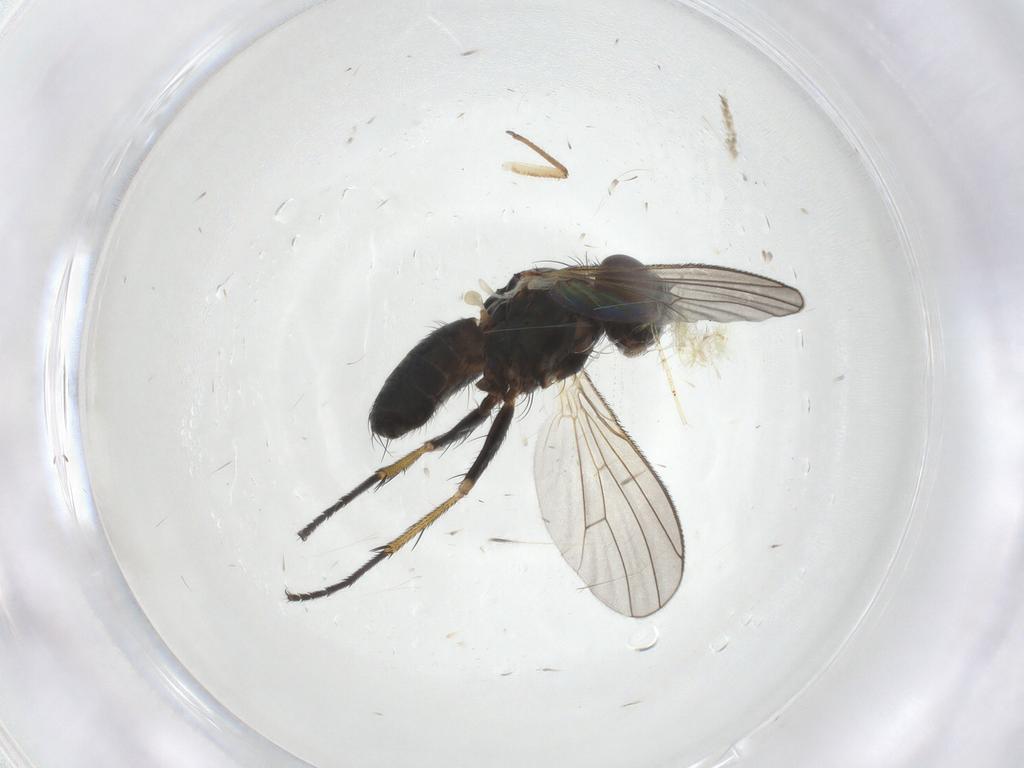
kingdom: Animalia
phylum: Arthropoda
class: Insecta
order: Diptera
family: Muscidae
